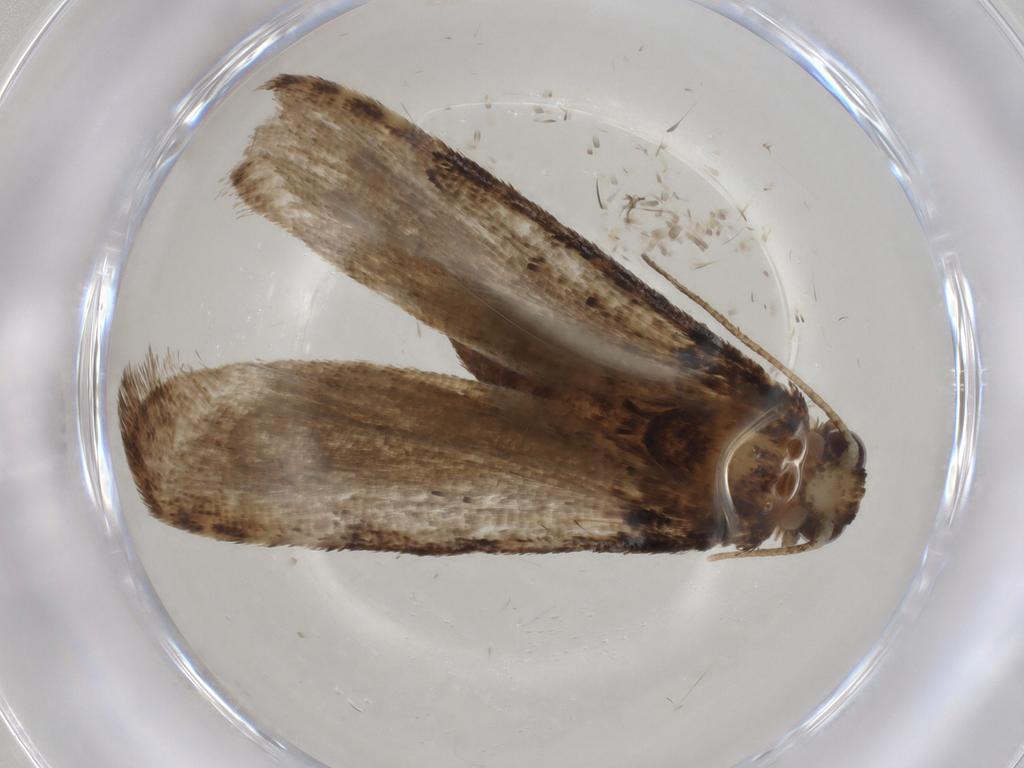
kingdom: Animalia
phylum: Arthropoda
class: Insecta
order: Lepidoptera
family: Erebidae
